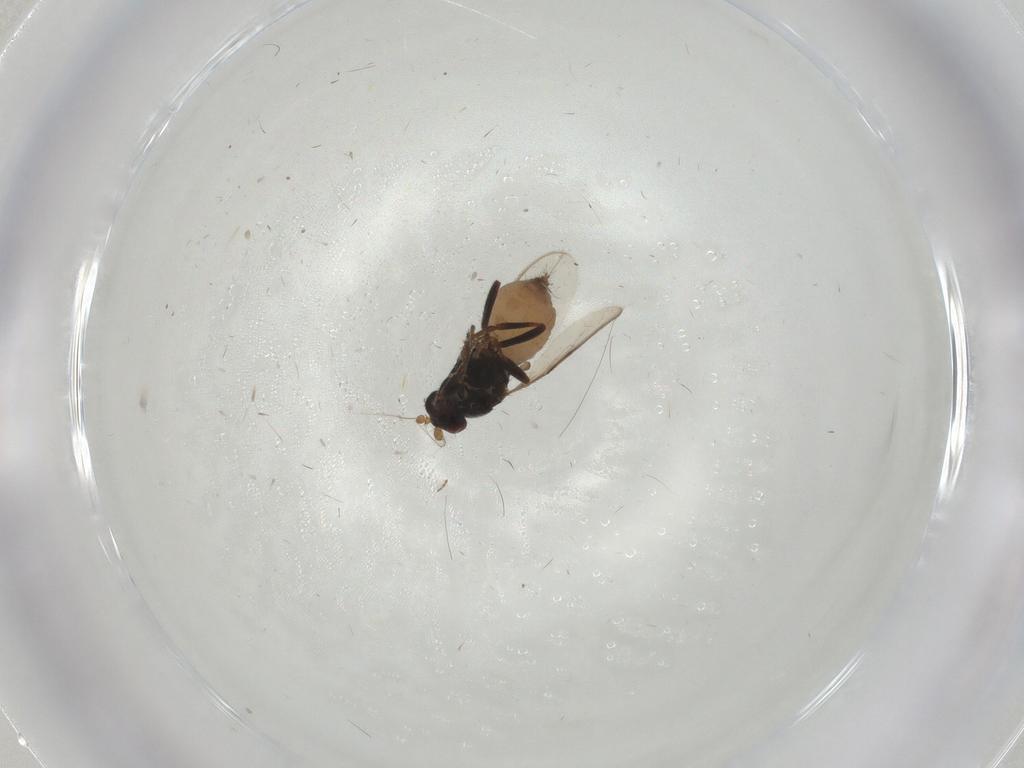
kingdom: Animalia
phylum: Arthropoda
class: Insecta
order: Diptera
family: Sphaeroceridae
